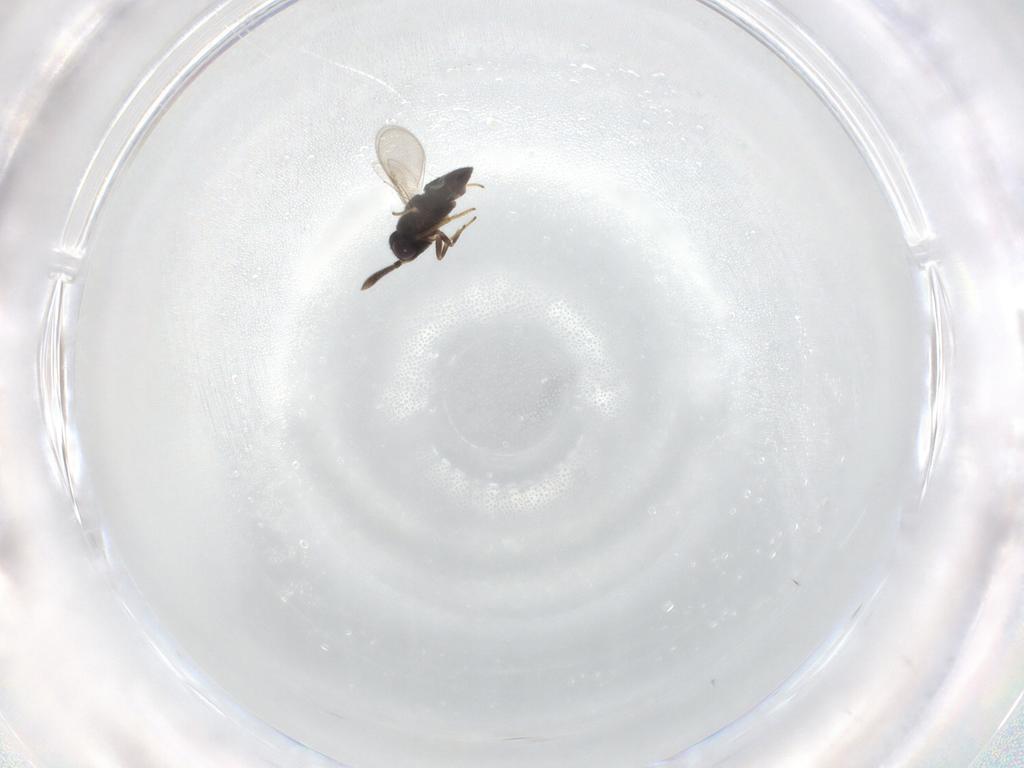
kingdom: Animalia
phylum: Arthropoda
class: Insecta
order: Hymenoptera
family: Encyrtidae
